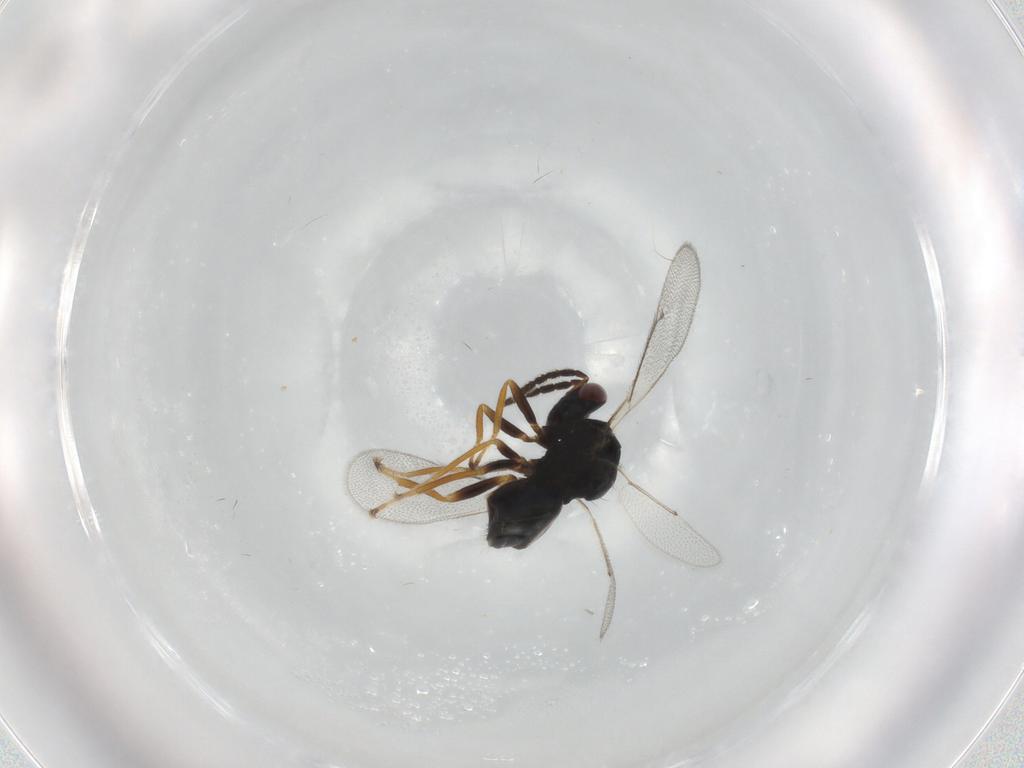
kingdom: Animalia
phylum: Arthropoda
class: Insecta
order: Hymenoptera
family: Eulophidae
